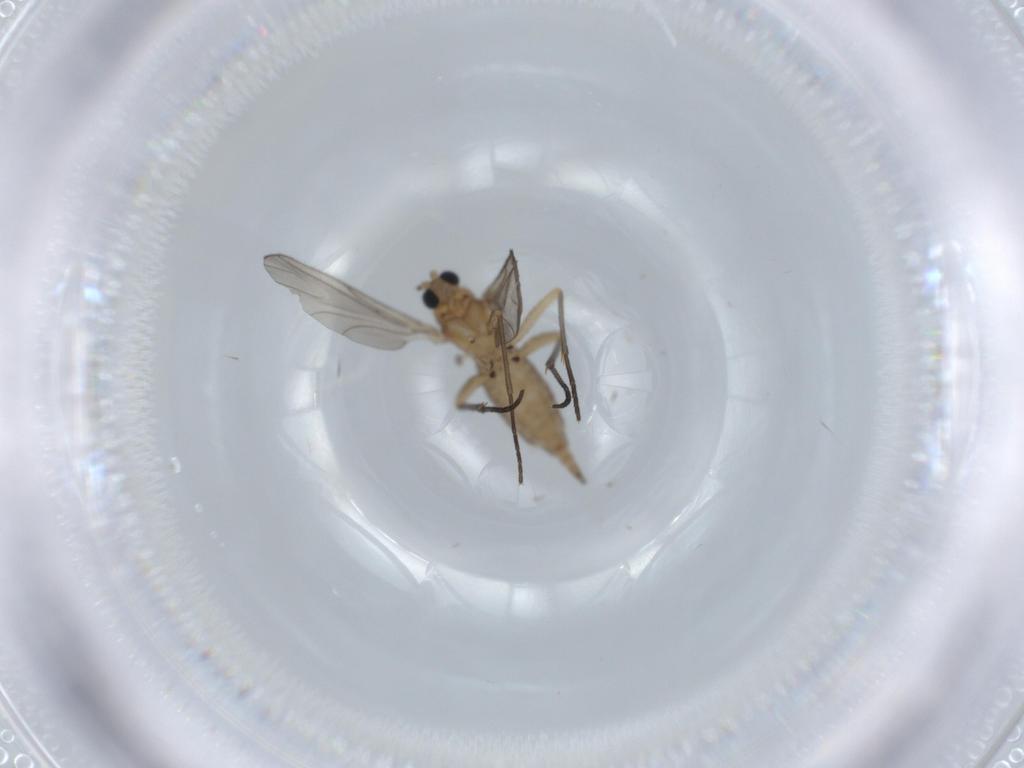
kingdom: Animalia
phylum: Arthropoda
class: Insecta
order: Diptera
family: Sciaridae
